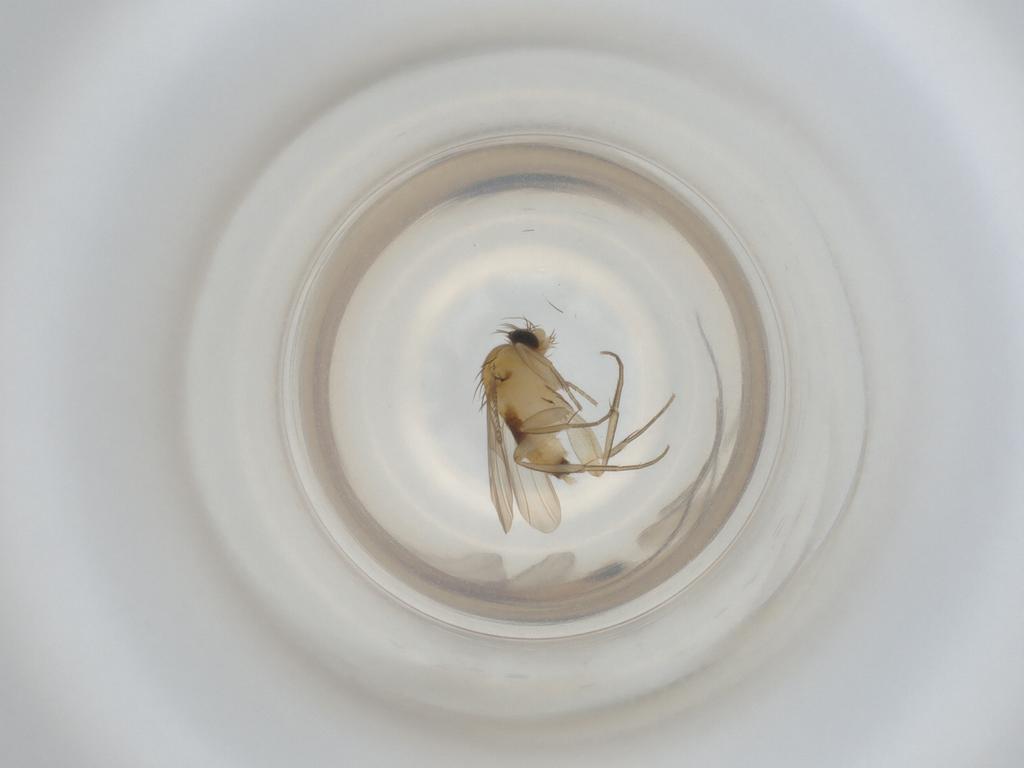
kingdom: Animalia
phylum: Arthropoda
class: Insecta
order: Diptera
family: Phoridae
